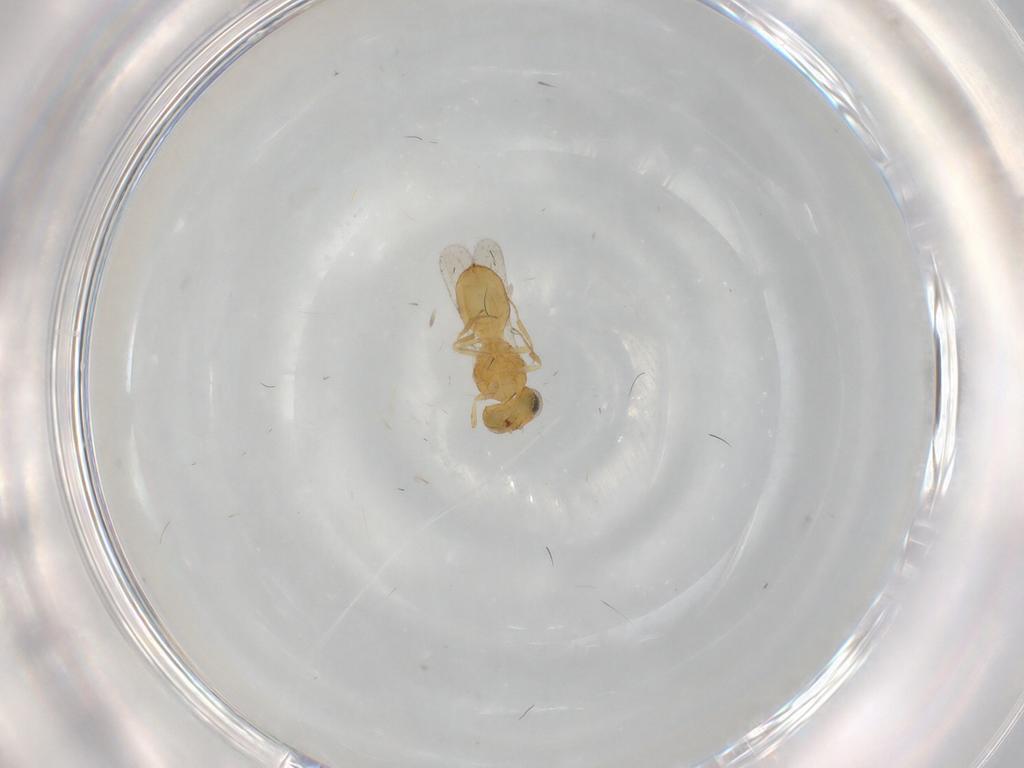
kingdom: Animalia
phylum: Arthropoda
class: Insecta
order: Hymenoptera
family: Scelionidae
